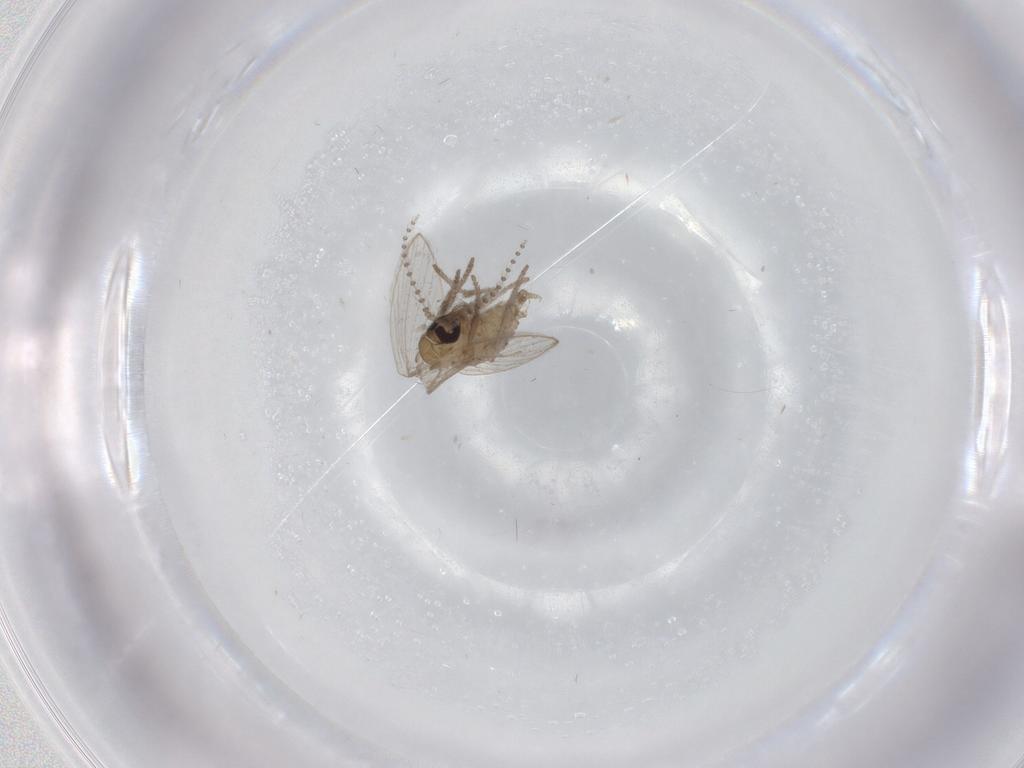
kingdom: Animalia
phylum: Arthropoda
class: Insecta
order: Diptera
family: Psychodidae
